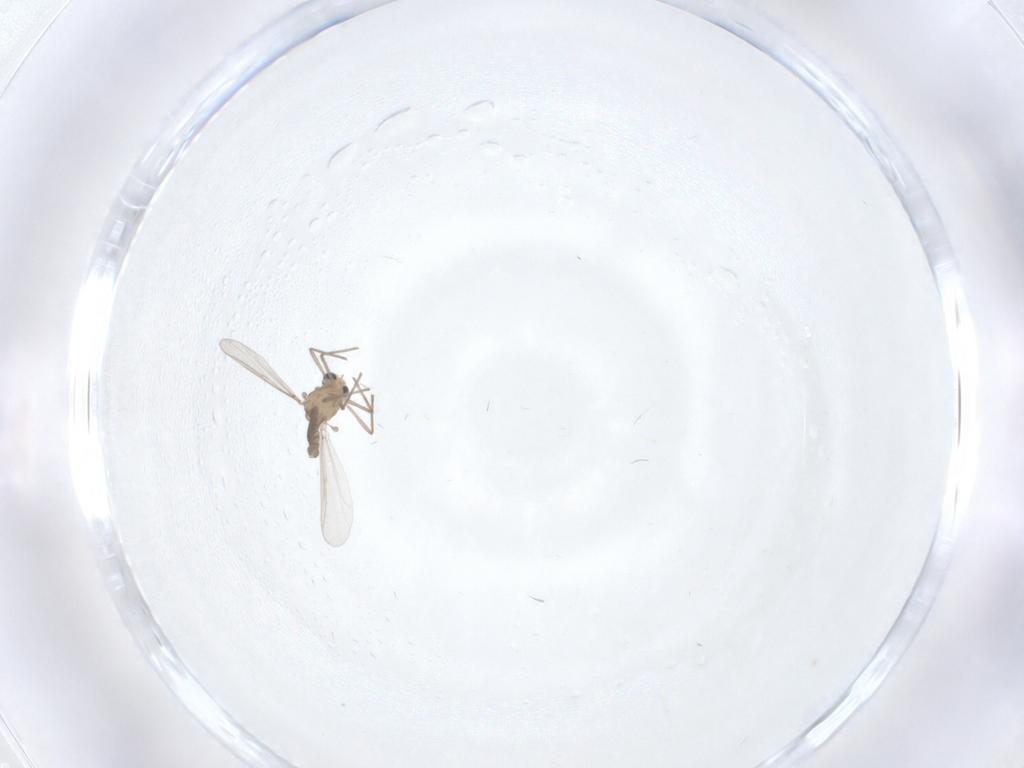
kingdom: Animalia
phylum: Arthropoda
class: Insecta
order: Diptera
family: Chironomidae
